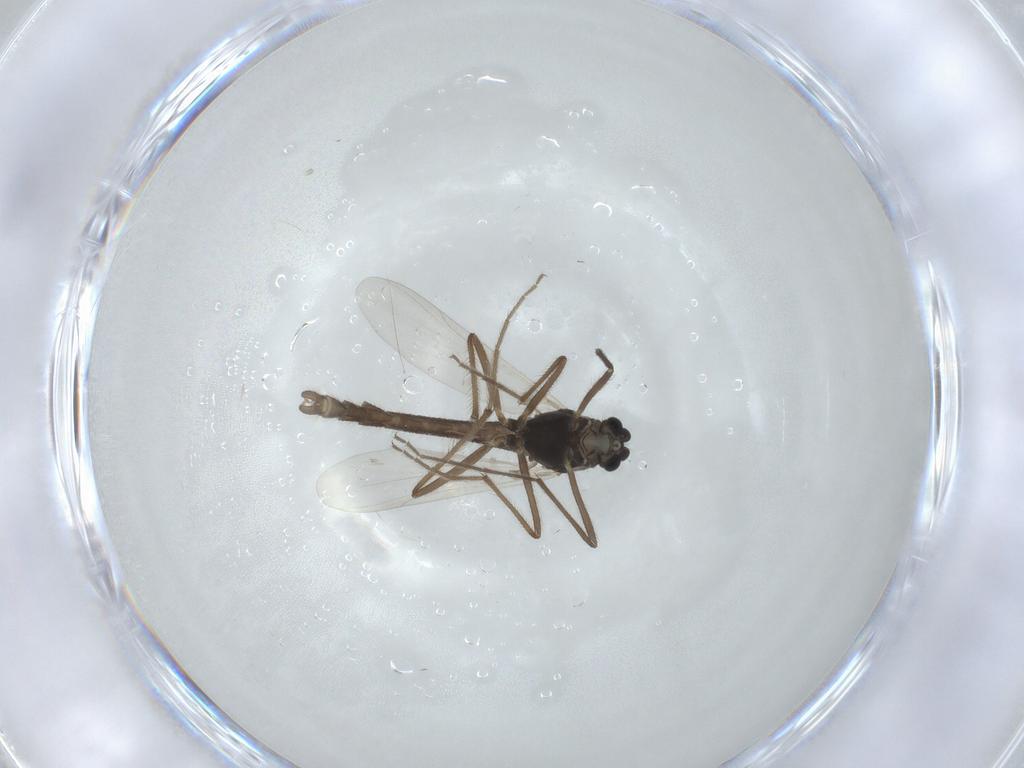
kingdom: Animalia
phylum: Arthropoda
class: Insecta
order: Diptera
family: Chironomidae
